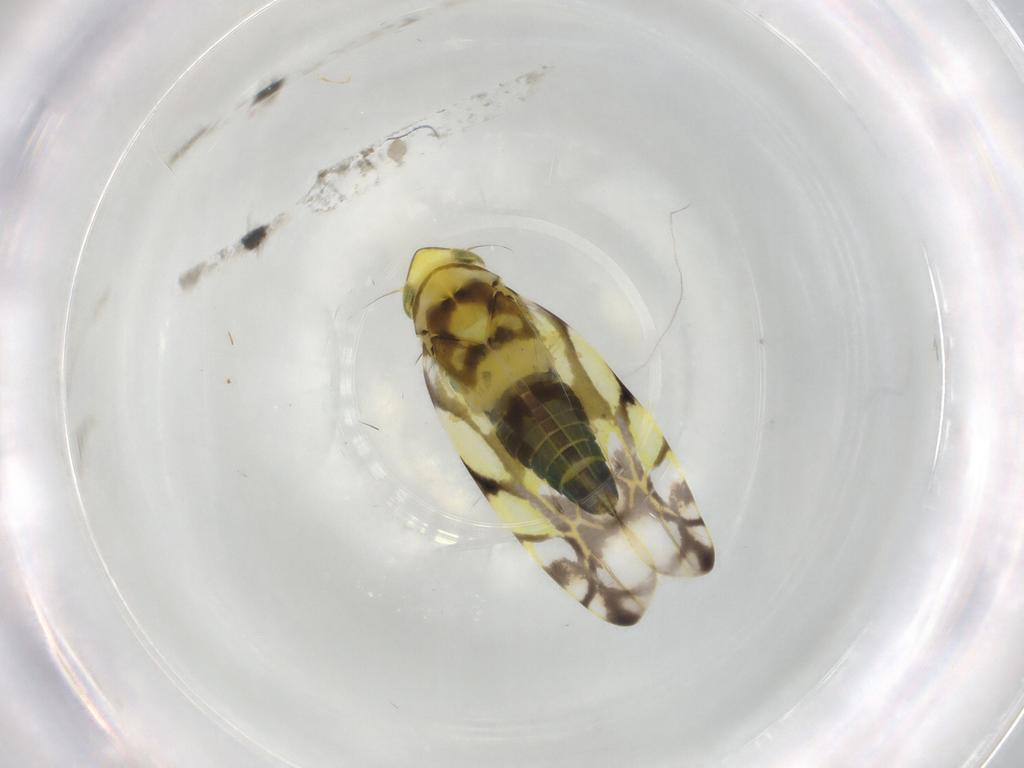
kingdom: Animalia
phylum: Arthropoda
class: Insecta
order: Hemiptera
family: Cicadellidae
